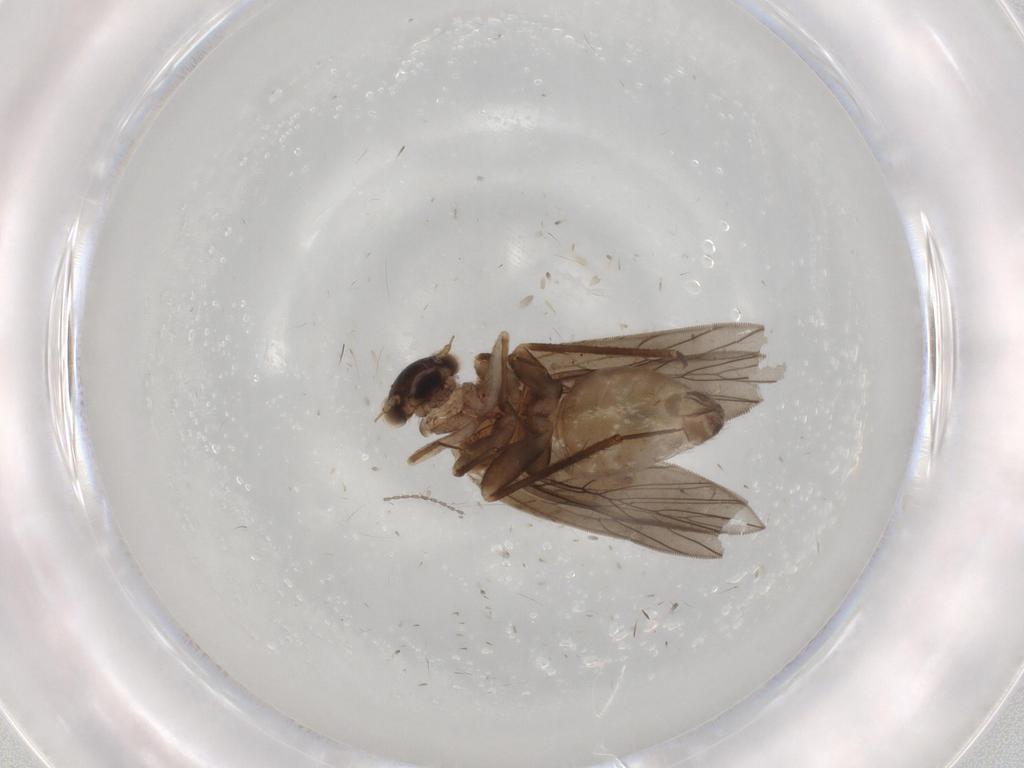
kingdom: Animalia
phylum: Arthropoda
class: Insecta
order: Psocodea
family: Lepidopsocidae
